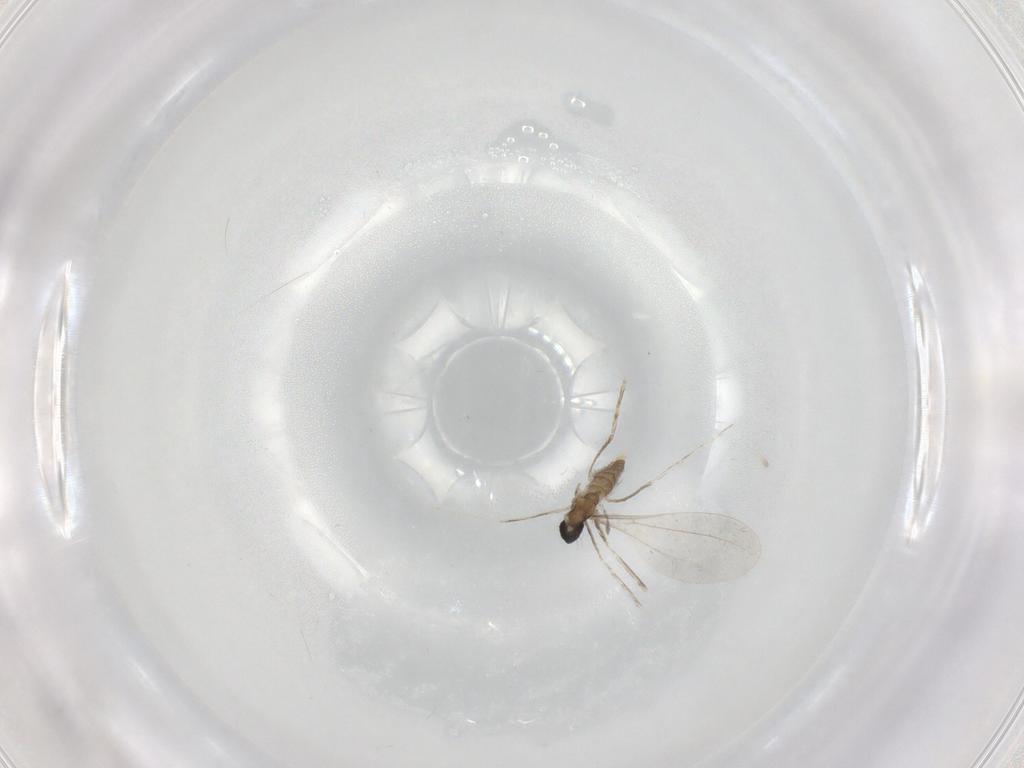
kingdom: Animalia
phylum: Arthropoda
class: Insecta
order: Diptera
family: Cecidomyiidae
